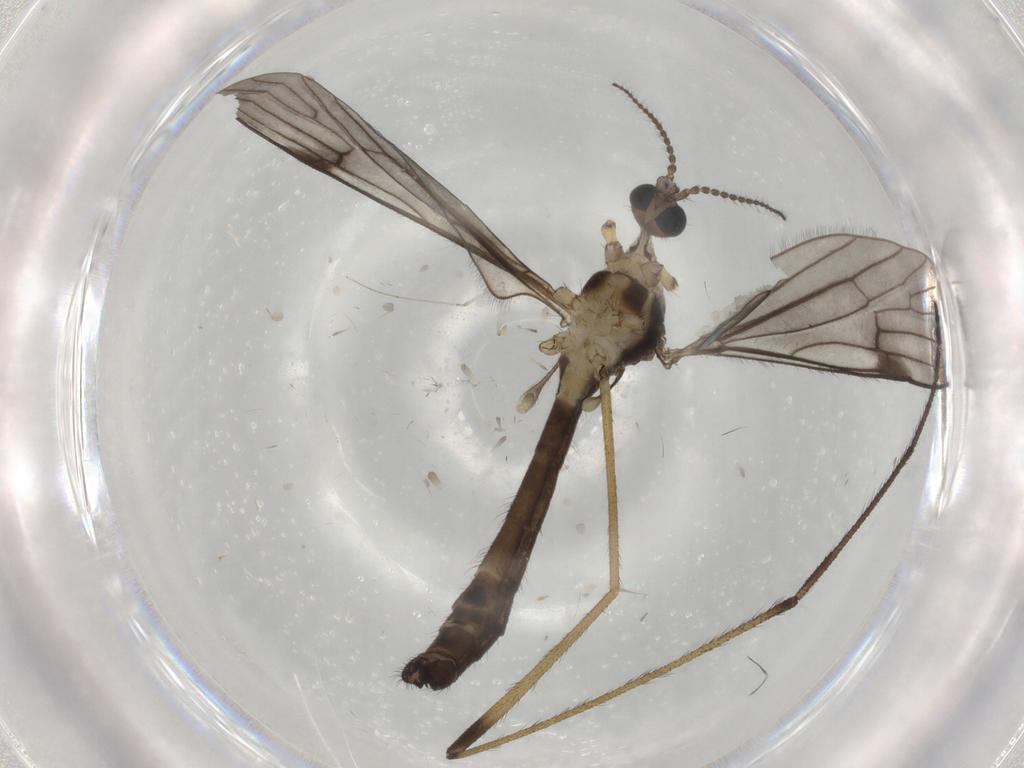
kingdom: Animalia
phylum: Arthropoda
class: Insecta
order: Diptera
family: Limoniidae
